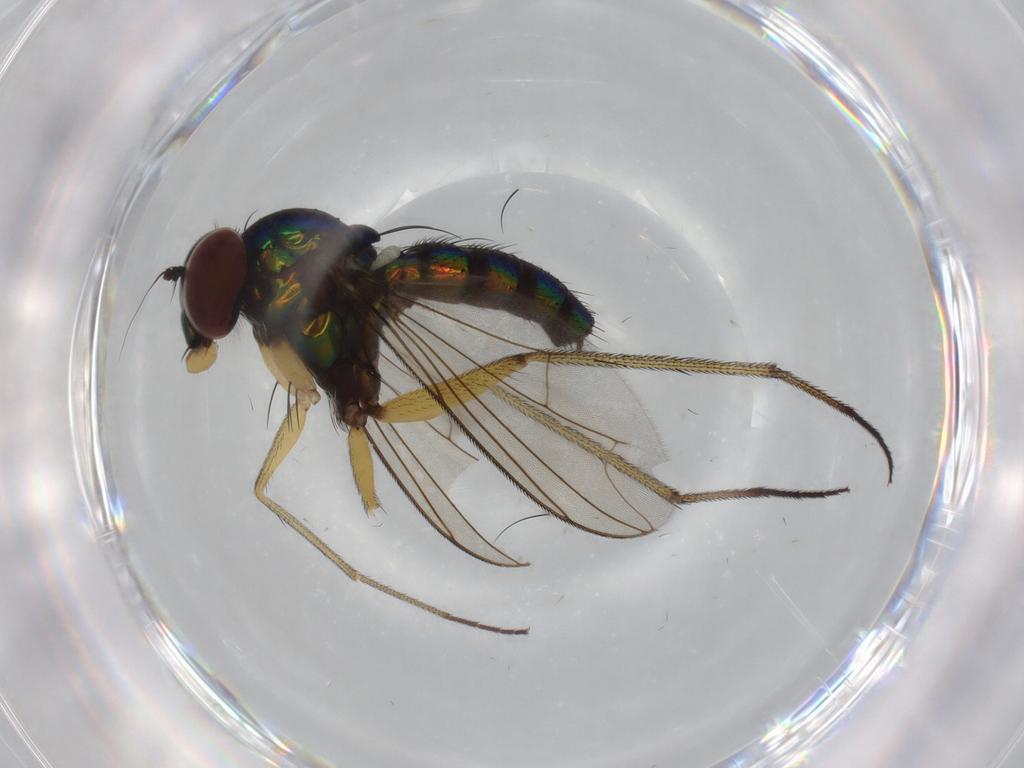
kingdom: Animalia
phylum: Arthropoda
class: Insecta
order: Diptera
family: Dolichopodidae
